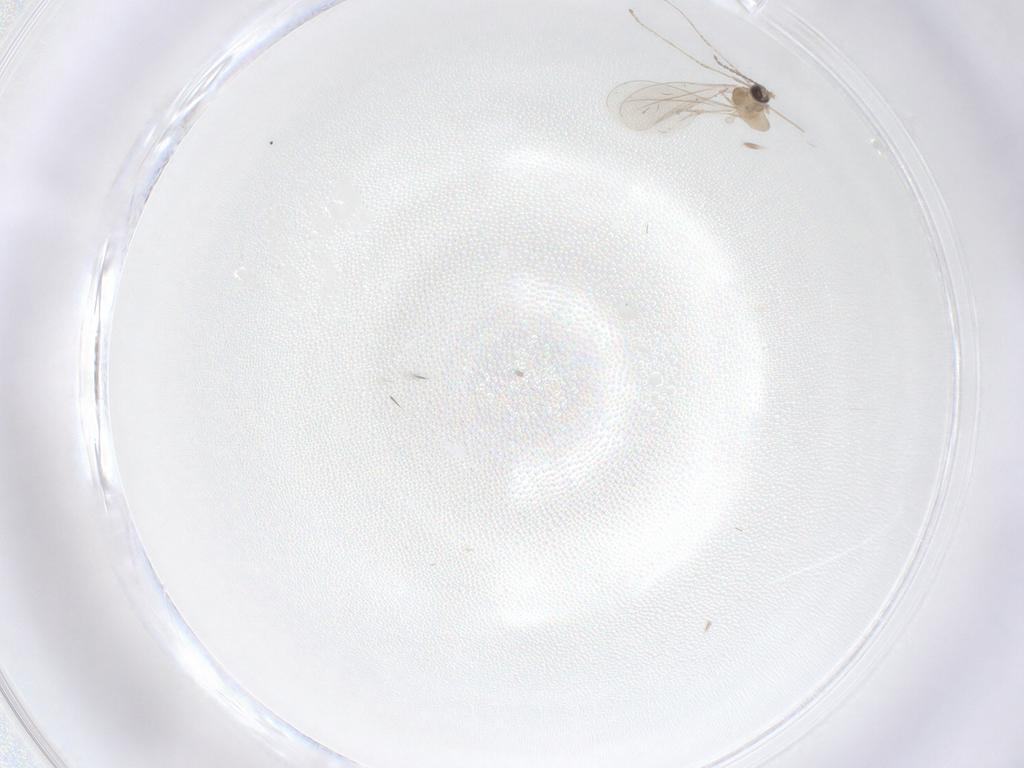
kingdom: Animalia
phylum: Arthropoda
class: Insecta
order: Diptera
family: Cecidomyiidae
